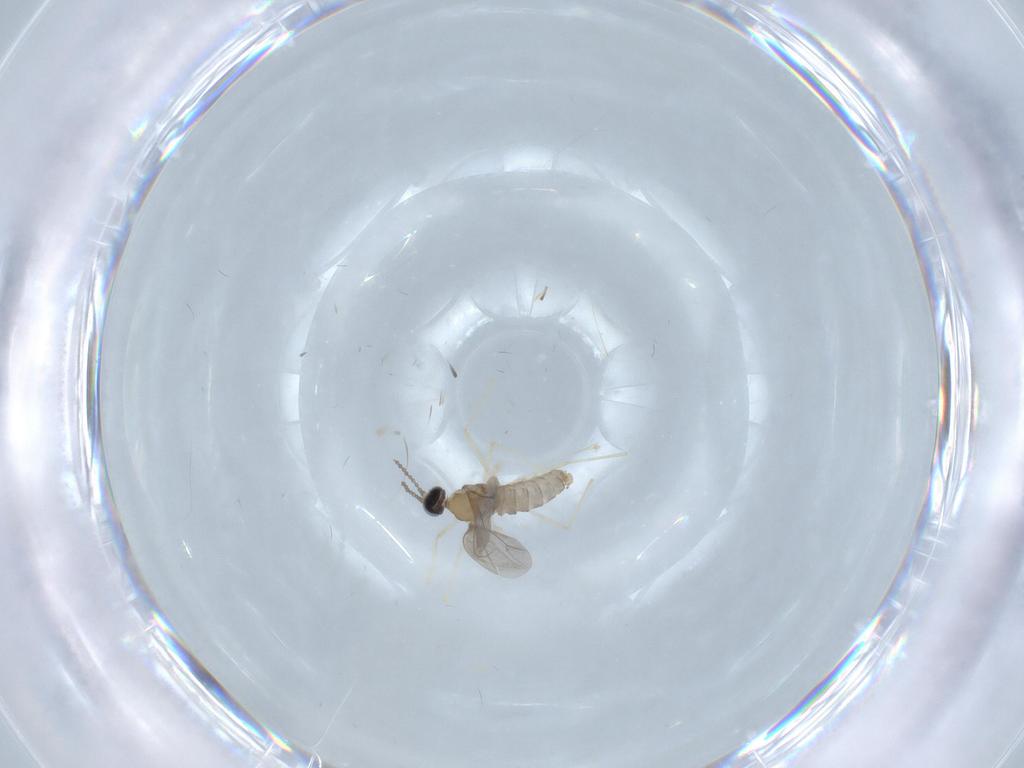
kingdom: Animalia
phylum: Arthropoda
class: Insecta
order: Diptera
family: Cecidomyiidae
